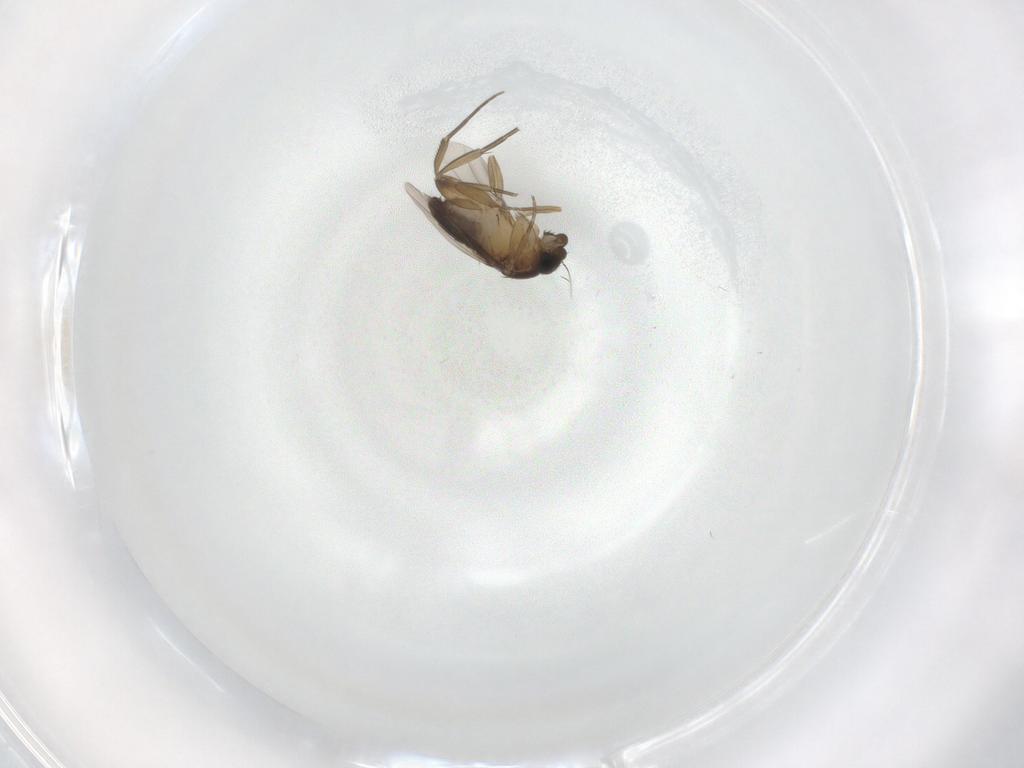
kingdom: Animalia
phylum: Arthropoda
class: Insecta
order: Diptera
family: Phoridae
